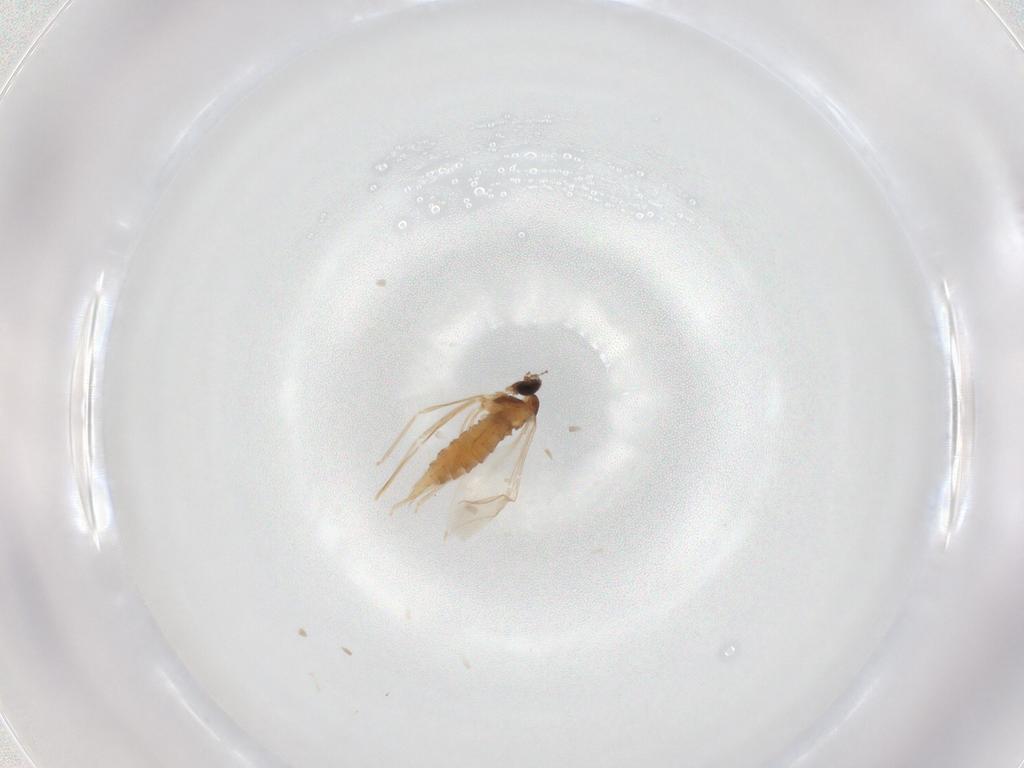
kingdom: Animalia
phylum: Arthropoda
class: Insecta
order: Diptera
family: Cecidomyiidae
